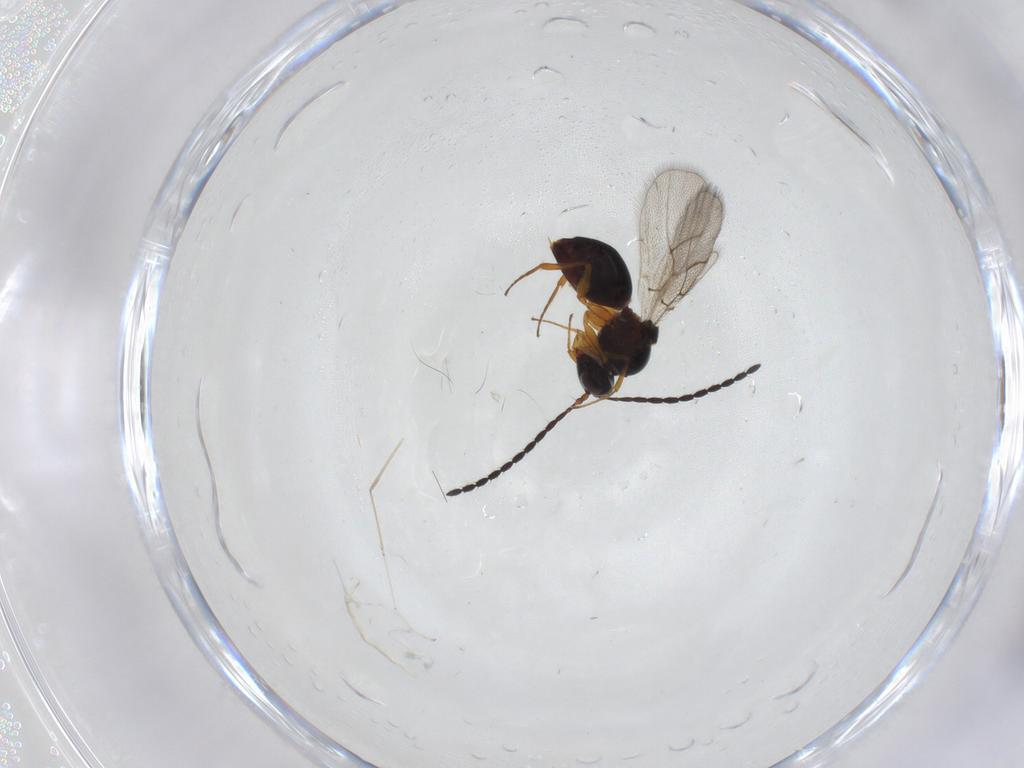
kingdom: Animalia
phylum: Arthropoda
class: Insecta
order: Hymenoptera
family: Figitidae
